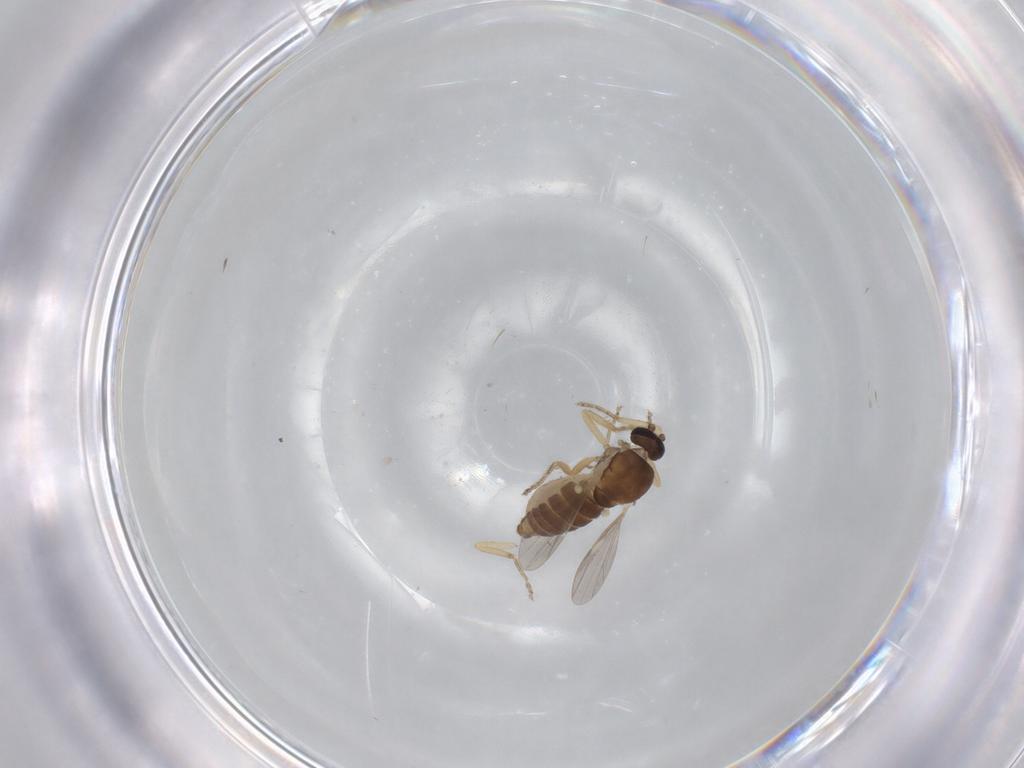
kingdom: Animalia
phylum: Arthropoda
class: Insecta
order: Diptera
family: Ceratopogonidae
